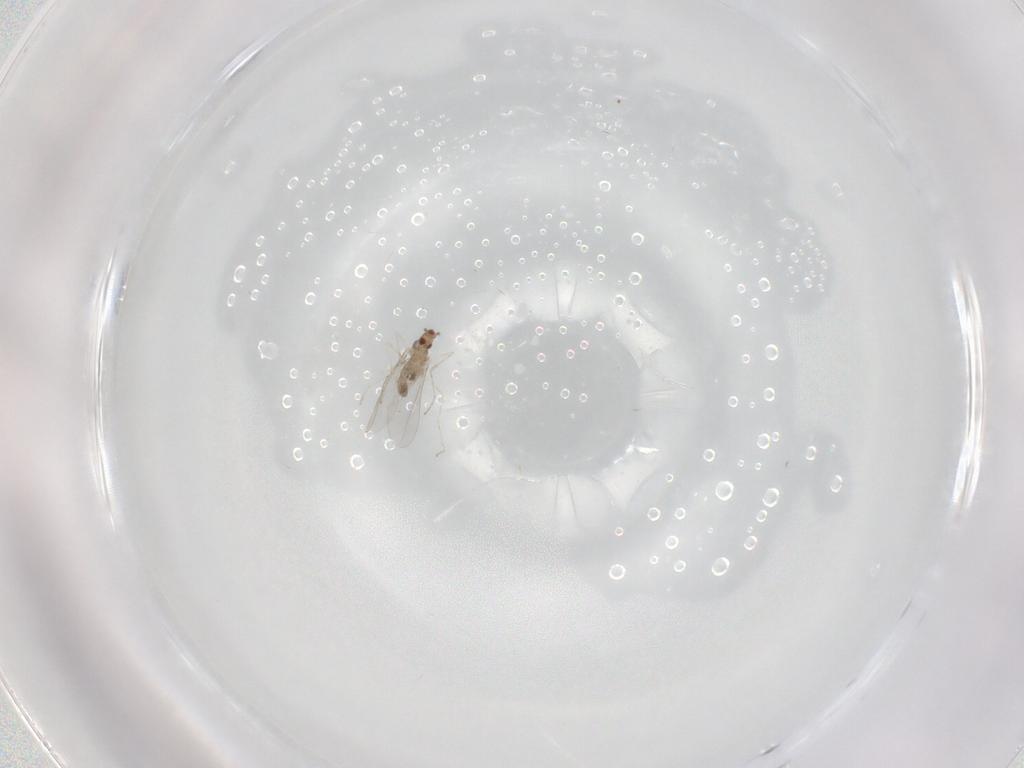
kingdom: Animalia
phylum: Arthropoda
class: Insecta
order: Diptera
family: Cecidomyiidae
